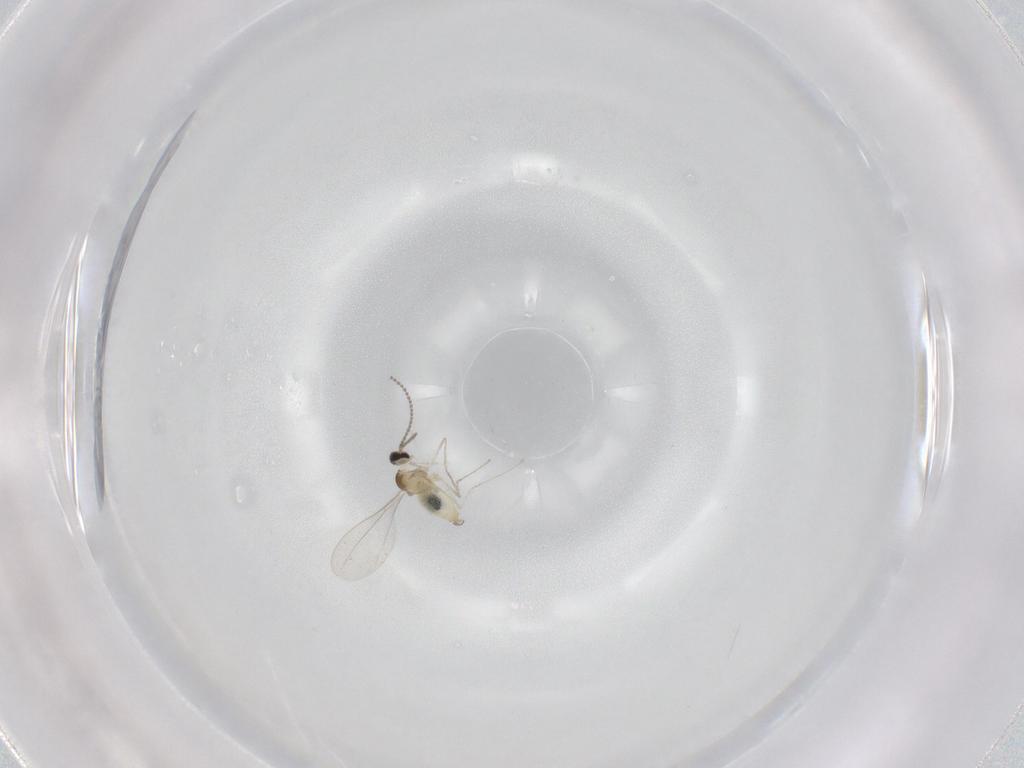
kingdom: Animalia
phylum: Arthropoda
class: Insecta
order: Diptera
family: Cecidomyiidae
